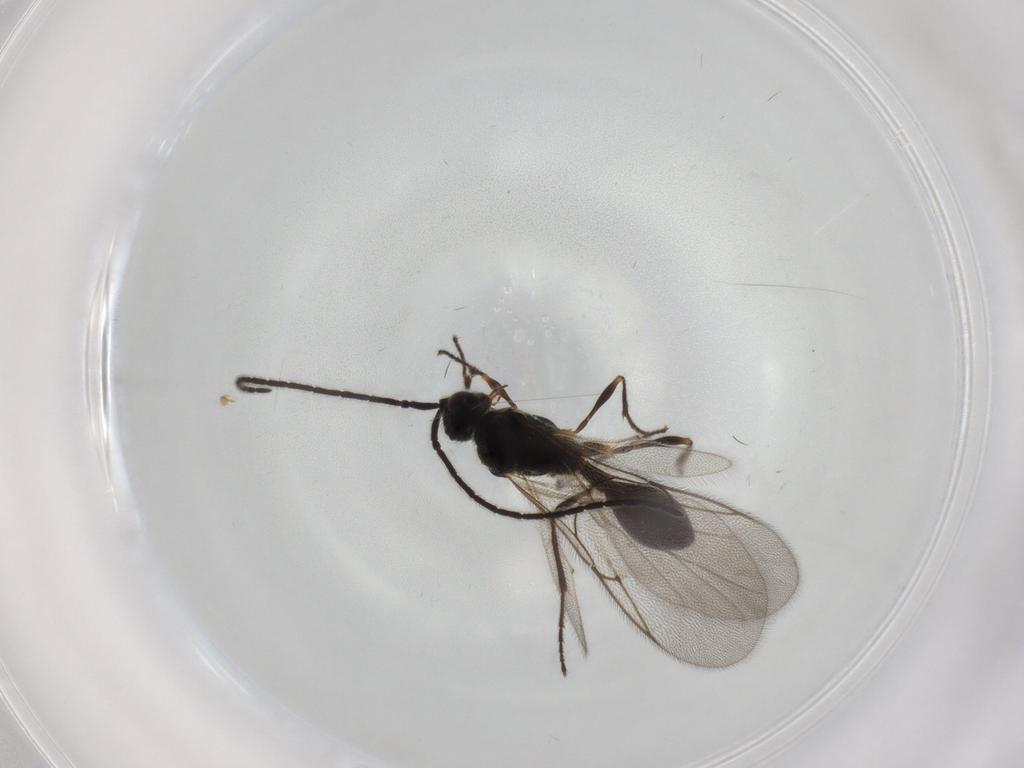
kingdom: Animalia
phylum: Arthropoda
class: Insecta
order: Hymenoptera
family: Diapriidae
